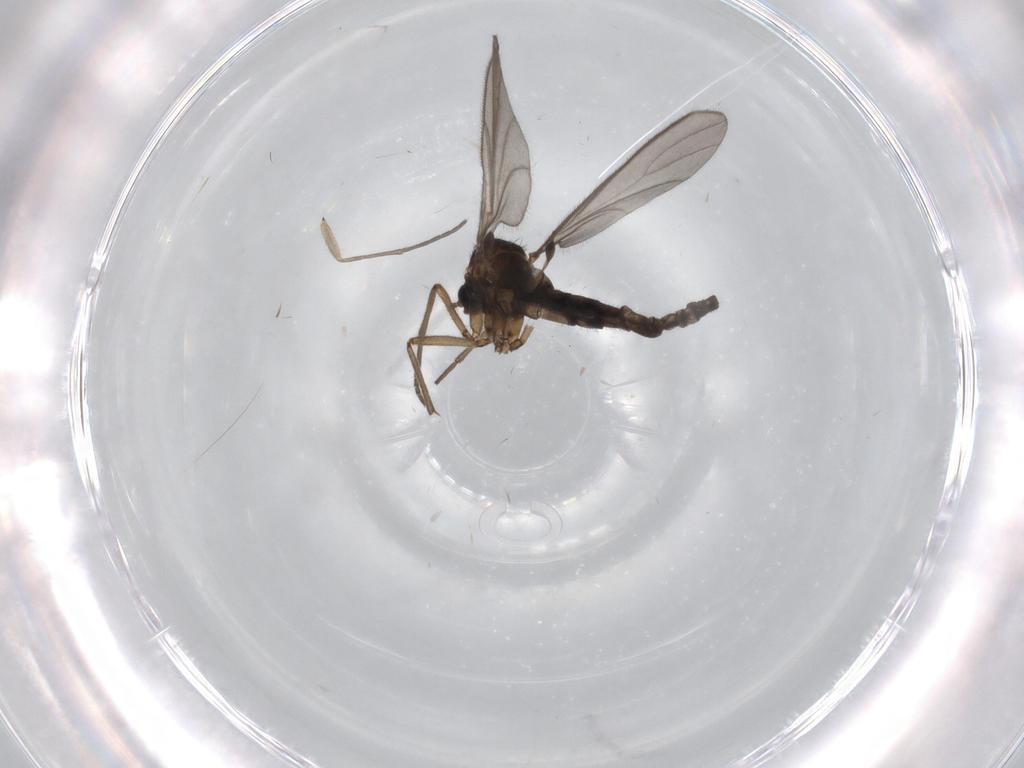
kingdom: Animalia
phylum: Arthropoda
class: Insecta
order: Diptera
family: Sciaridae
